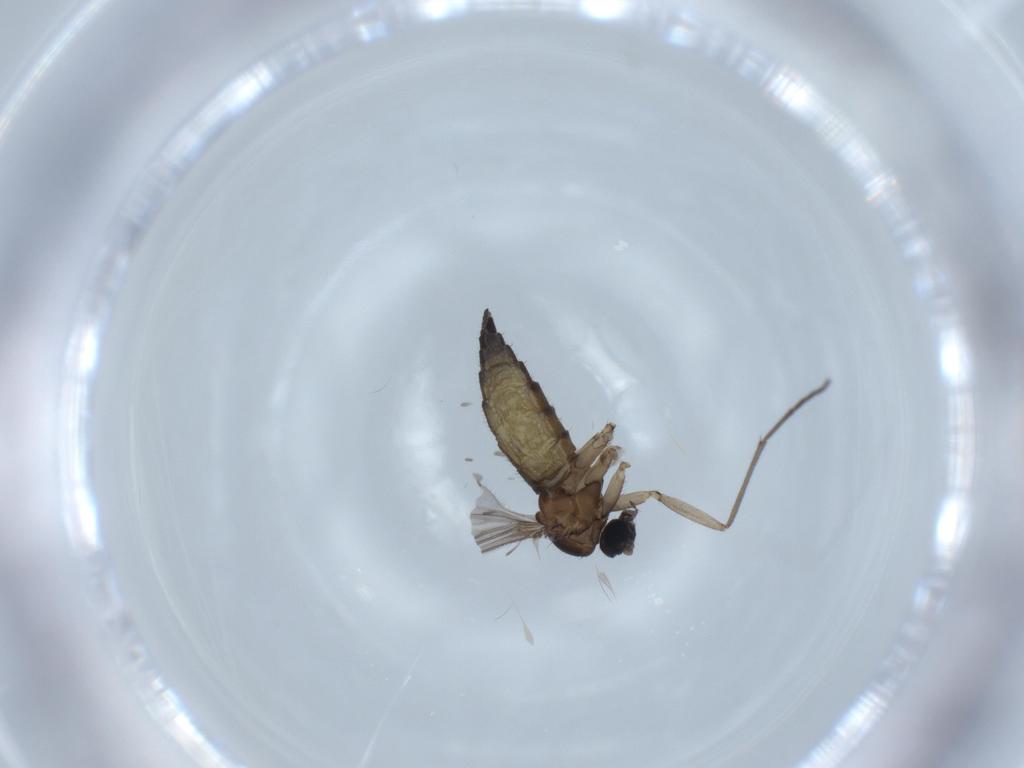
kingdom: Animalia
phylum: Arthropoda
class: Insecta
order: Diptera
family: Sciaridae
